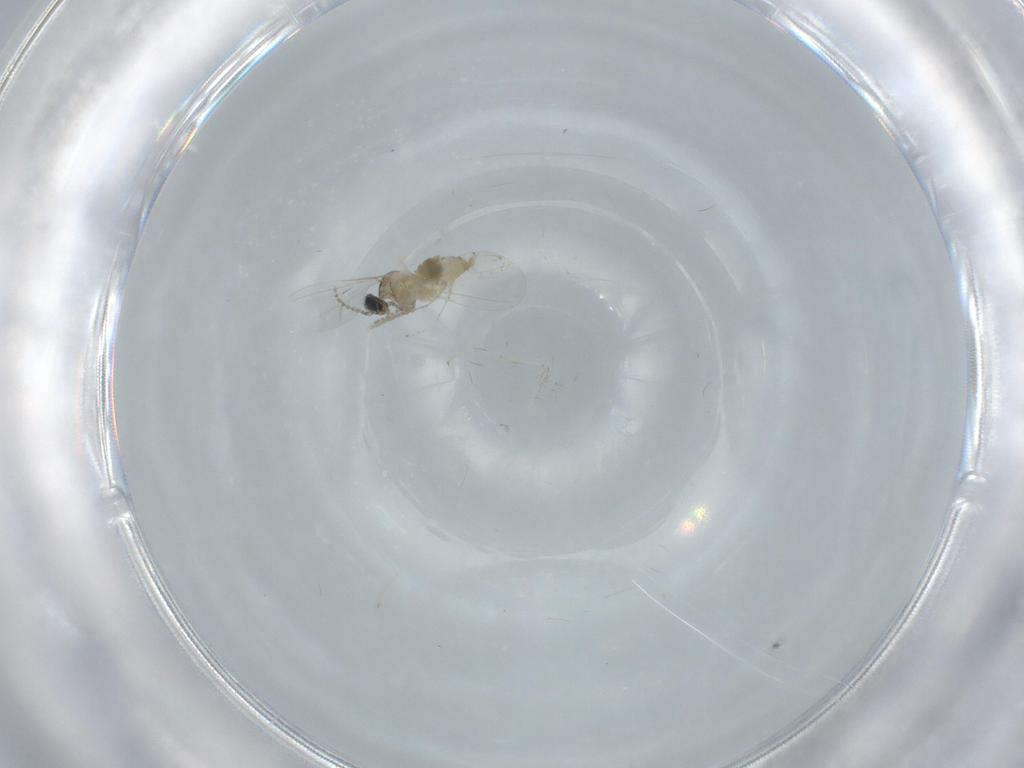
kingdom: Animalia
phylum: Arthropoda
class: Insecta
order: Diptera
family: Cecidomyiidae
